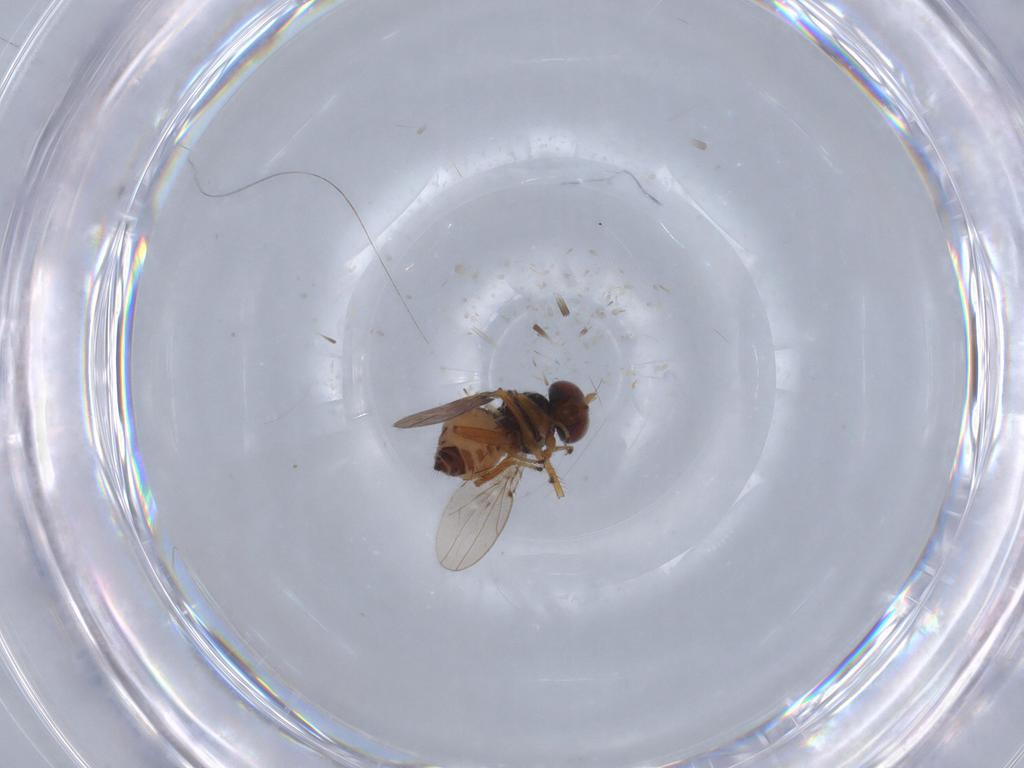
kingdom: Animalia
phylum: Arthropoda
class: Insecta
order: Diptera
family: Ephydridae
